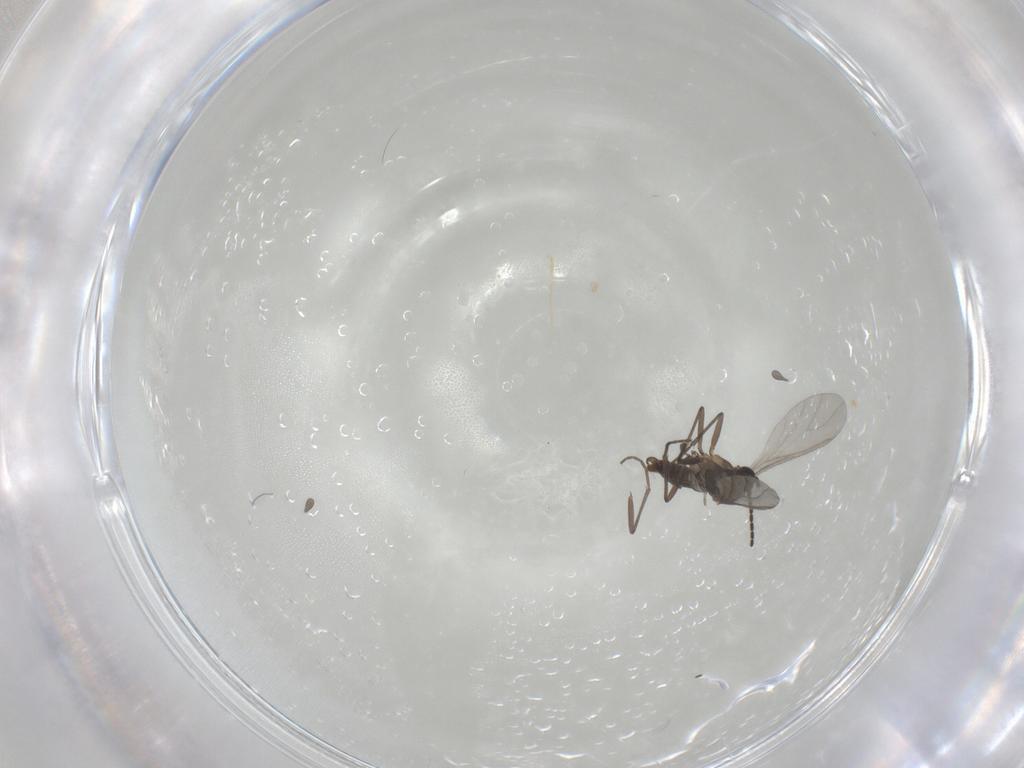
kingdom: Animalia
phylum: Arthropoda
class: Insecta
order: Diptera
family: Sciaridae
